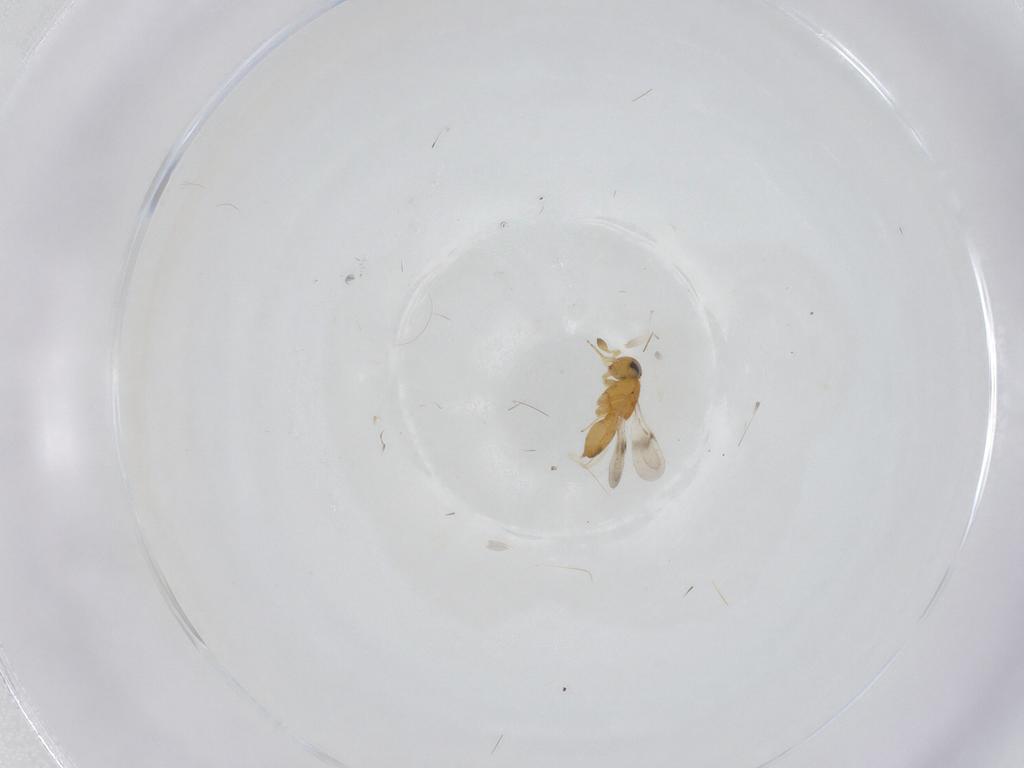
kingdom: Animalia
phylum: Arthropoda
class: Insecta
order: Hymenoptera
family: Scelionidae
